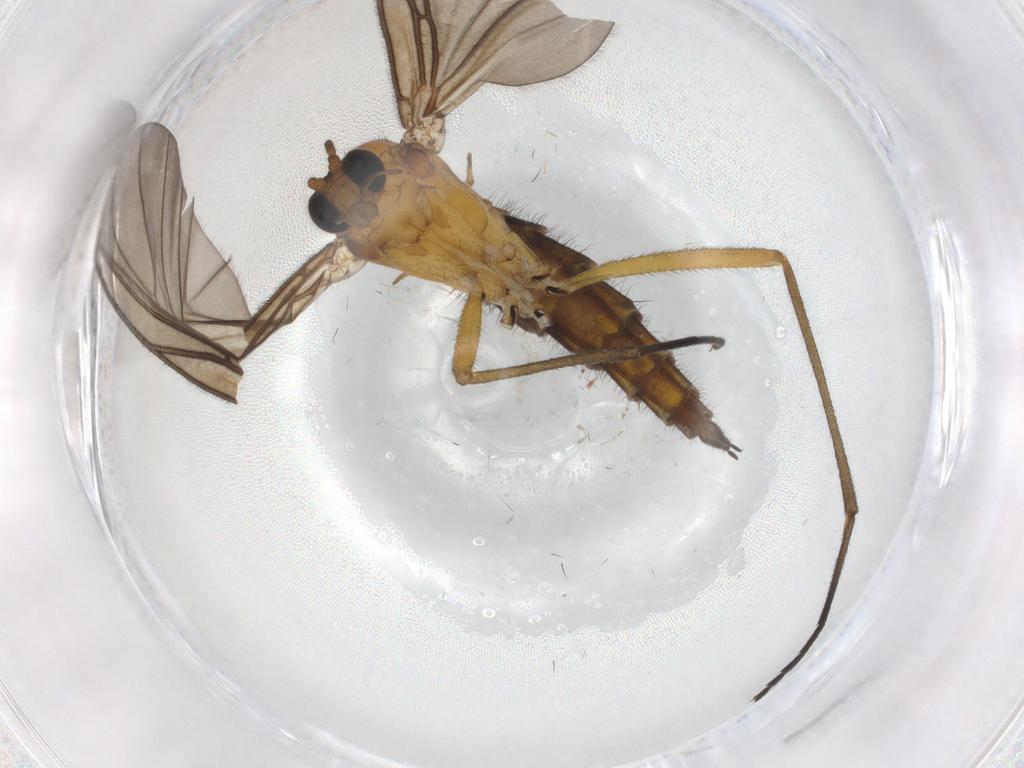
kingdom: Animalia
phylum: Arthropoda
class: Insecta
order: Diptera
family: Sciaridae
